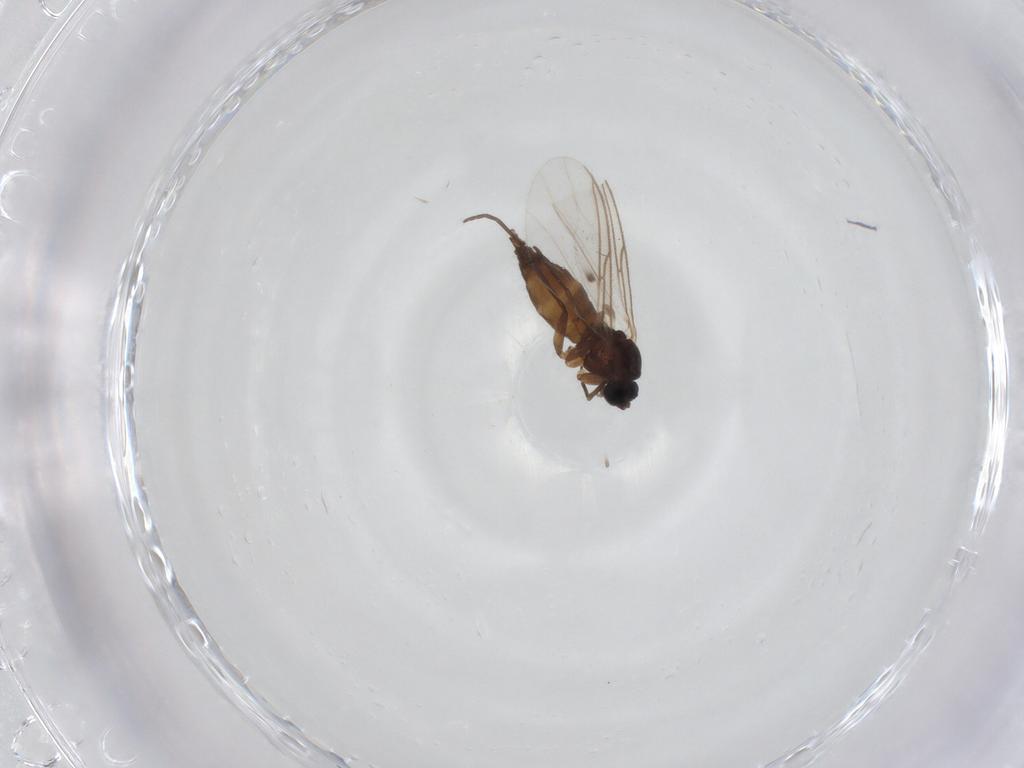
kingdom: Animalia
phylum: Arthropoda
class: Insecta
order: Diptera
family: Sciaridae
